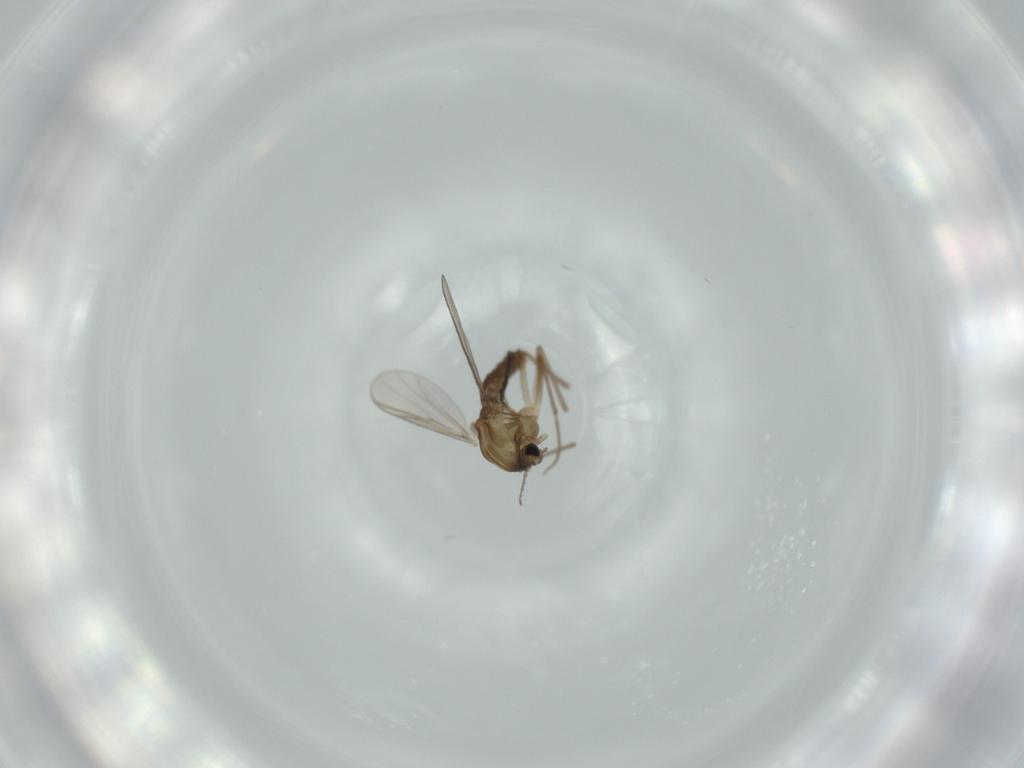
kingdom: Animalia
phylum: Arthropoda
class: Insecta
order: Diptera
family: Chironomidae
